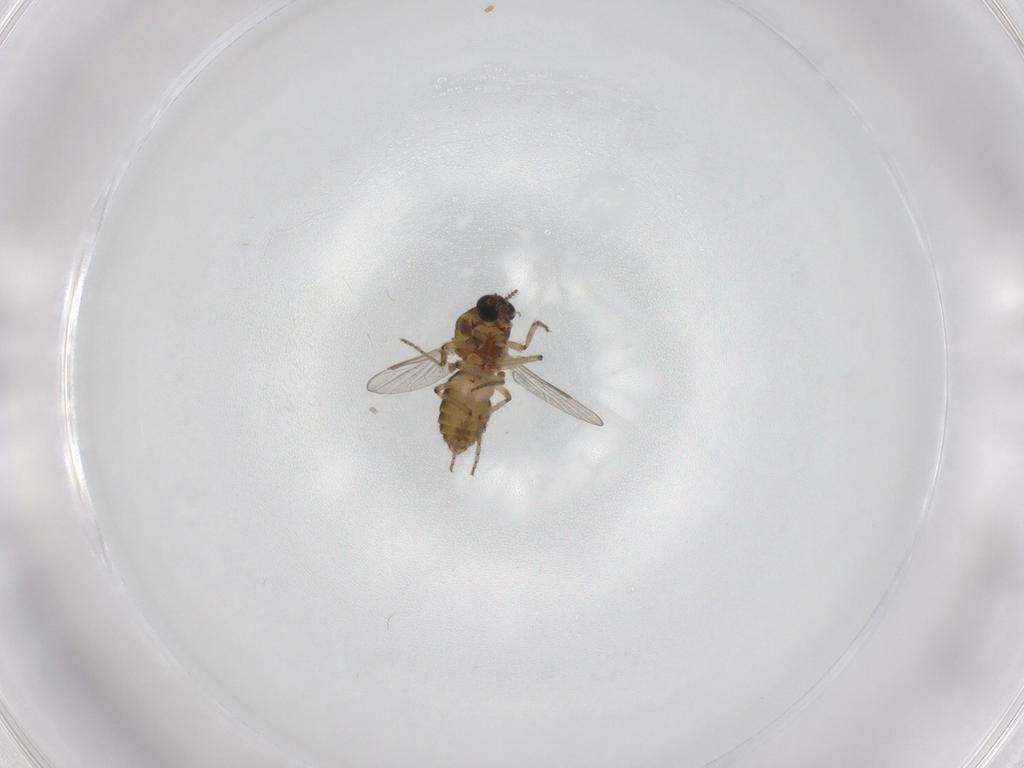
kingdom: Animalia
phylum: Arthropoda
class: Insecta
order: Diptera
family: Ceratopogonidae
